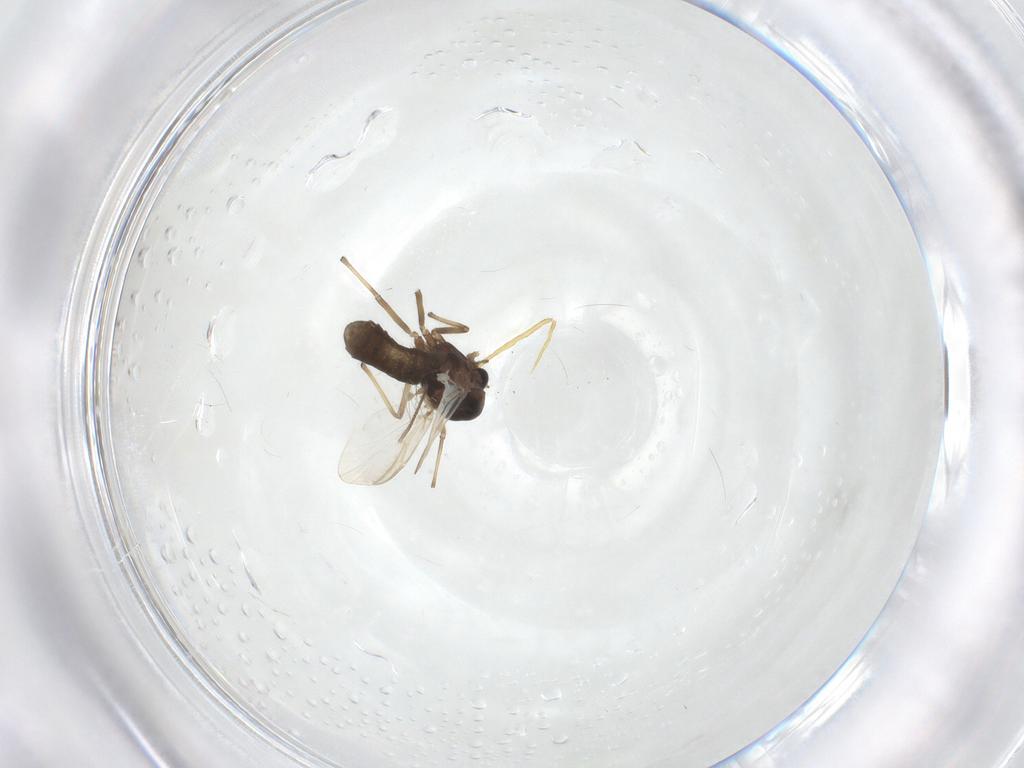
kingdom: Animalia
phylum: Arthropoda
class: Insecta
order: Diptera
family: Chironomidae
